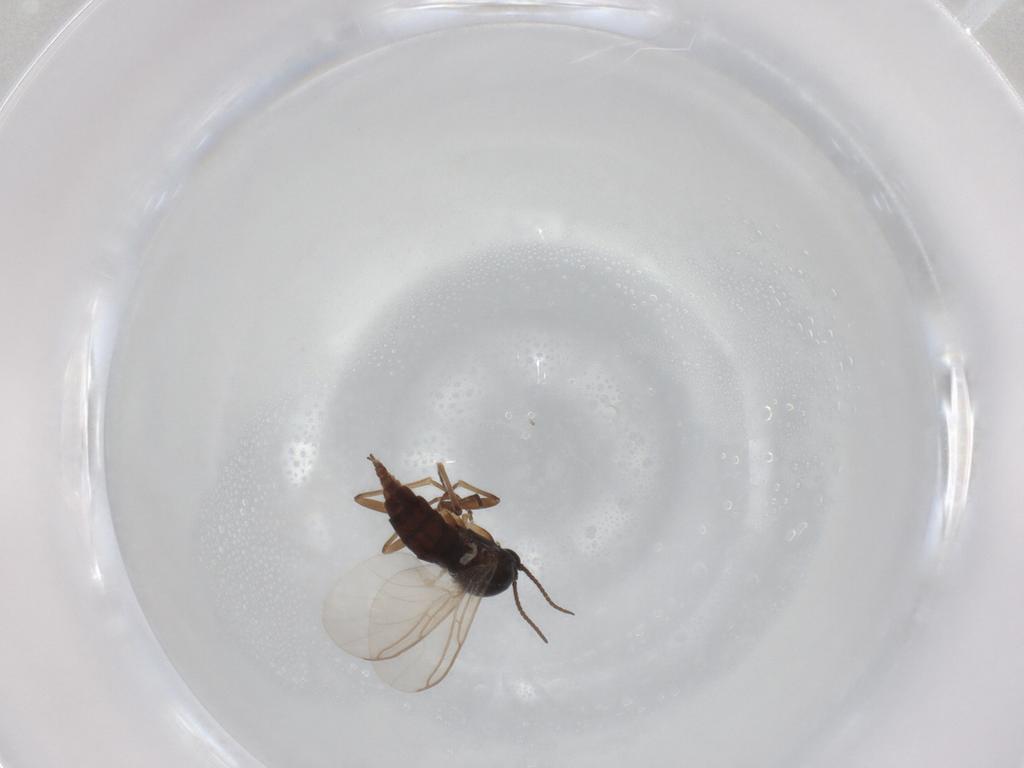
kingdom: Animalia
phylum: Arthropoda
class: Insecta
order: Diptera
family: Sciaridae
